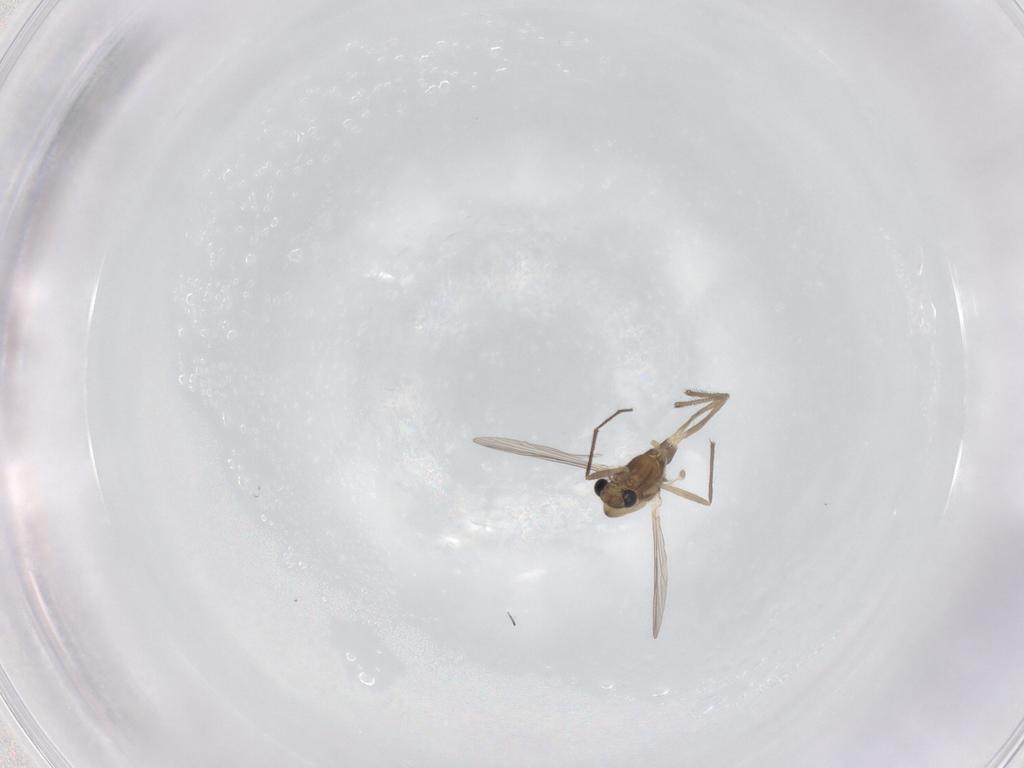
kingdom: Animalia
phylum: Arthropoda
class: Insecta
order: Diptera
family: Chironomidae
